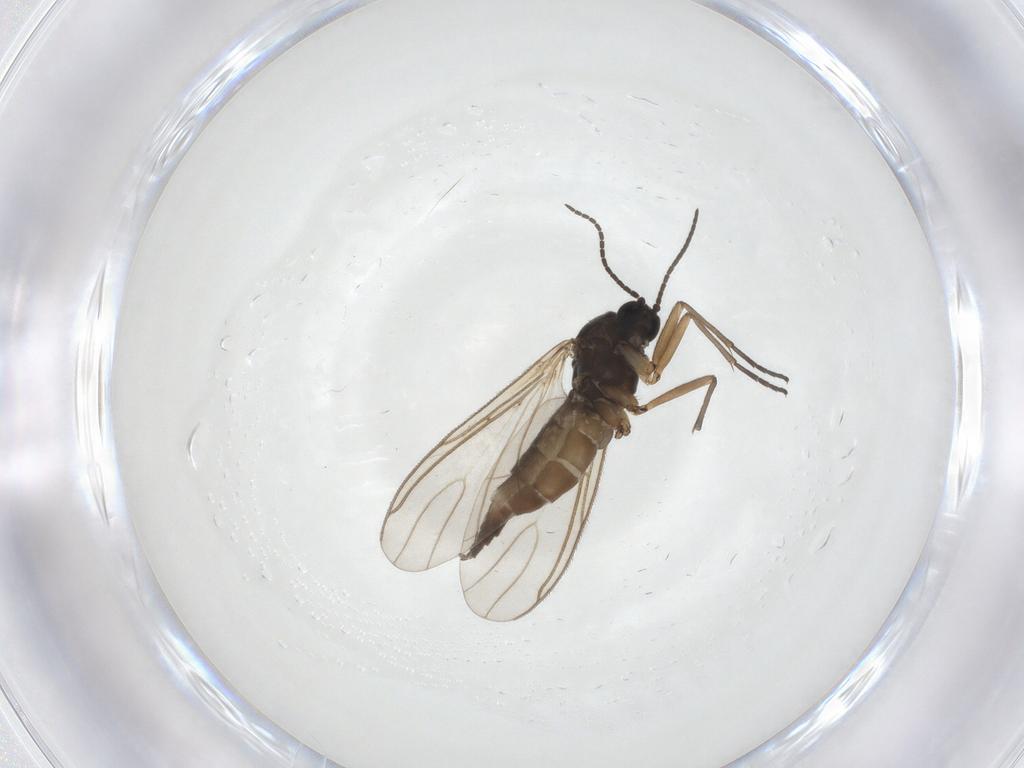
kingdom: Animalia
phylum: Arthropoda
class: Insecta
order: Diptera
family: Sciaridae
